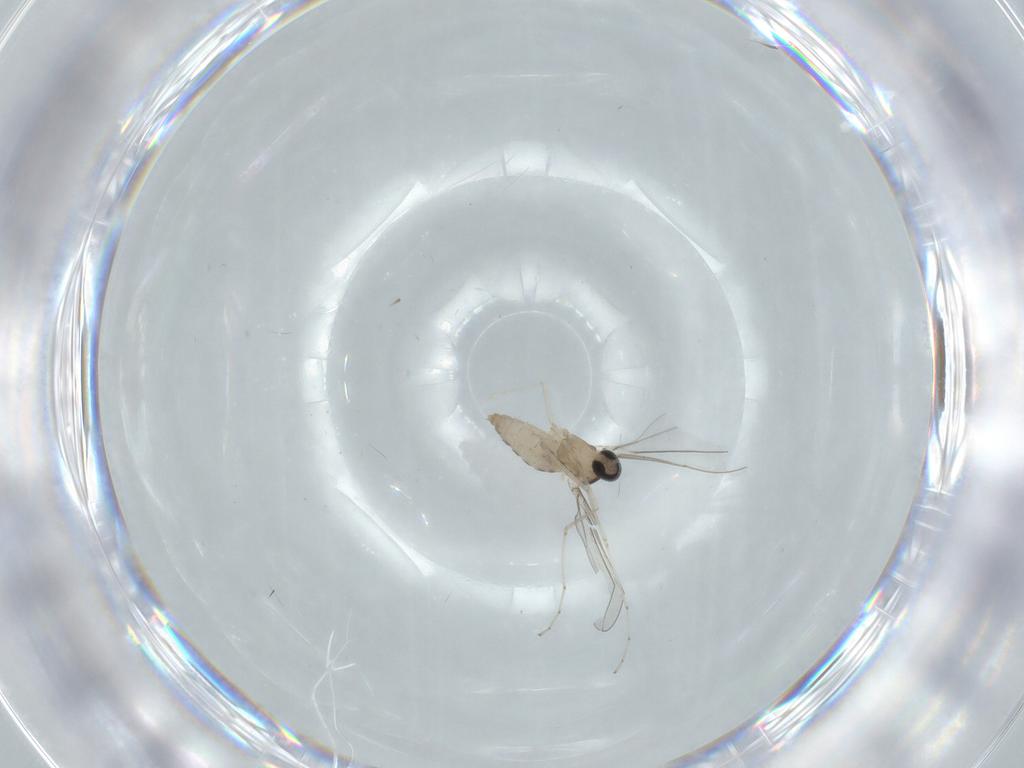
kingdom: Animalia
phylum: Arthropoda
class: Insecta
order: Diptera
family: Cecidomyiidae
